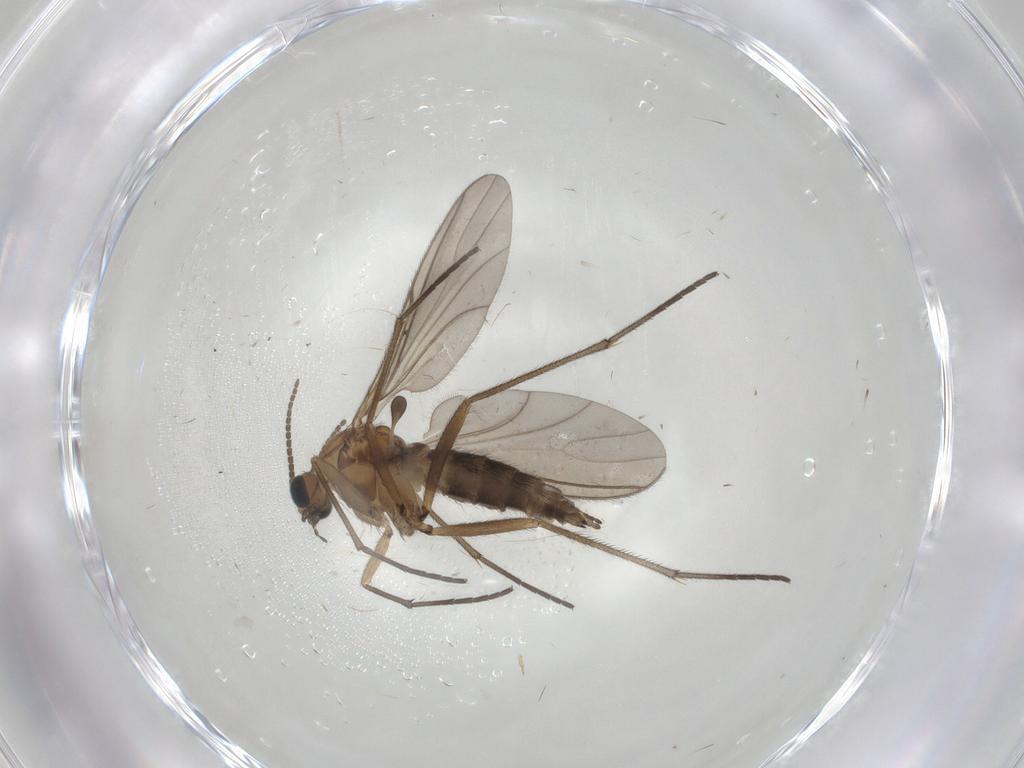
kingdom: Animalia
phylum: Arthropoda
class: Insecta
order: Diptera
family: Sciaridae
